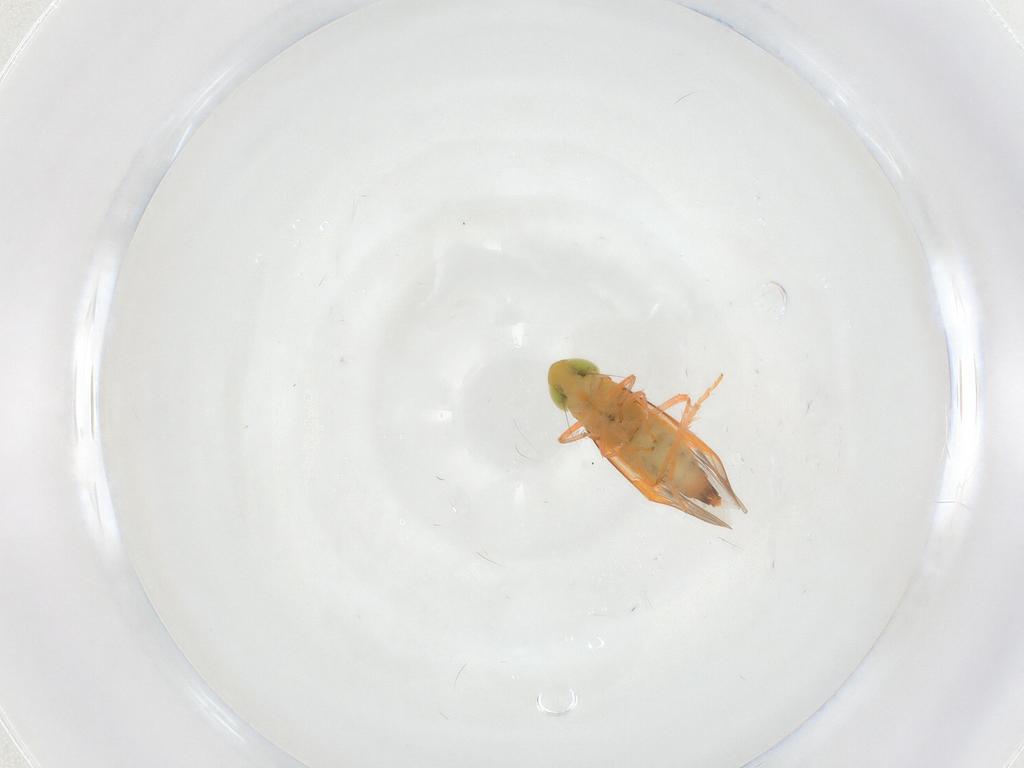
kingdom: Animalia
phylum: Arthropoda
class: Insecta
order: Hemiptera
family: Cicadellidae
